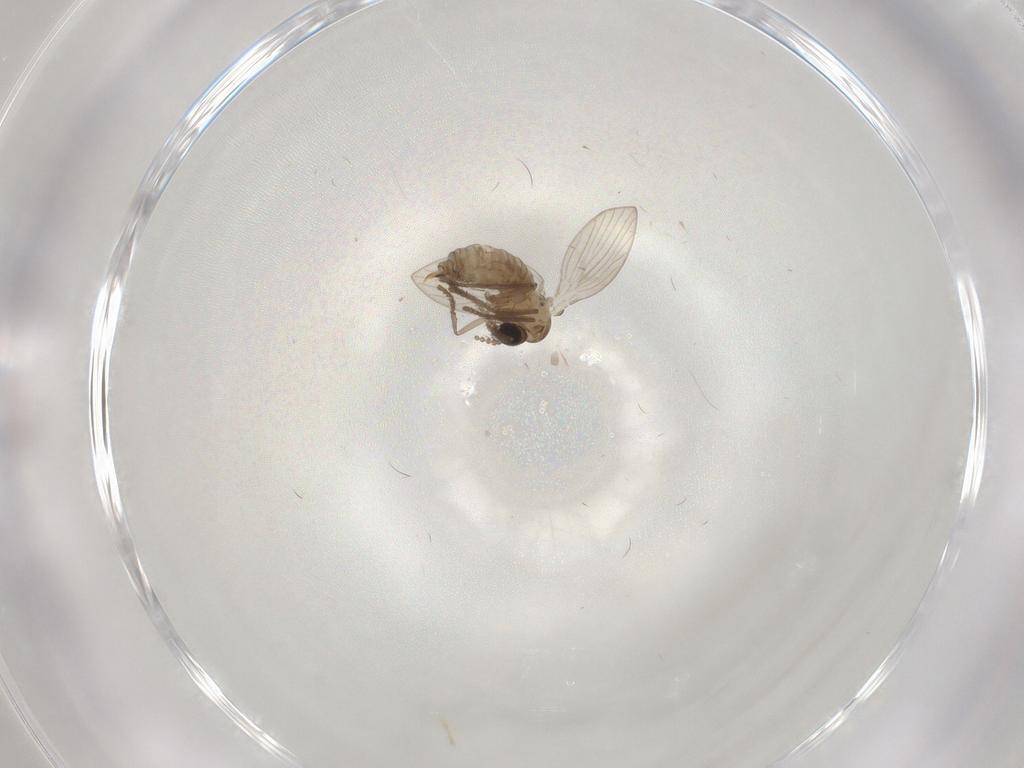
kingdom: Animalia
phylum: Arthropoda
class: Insecta
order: Diptera
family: Psychodidae
